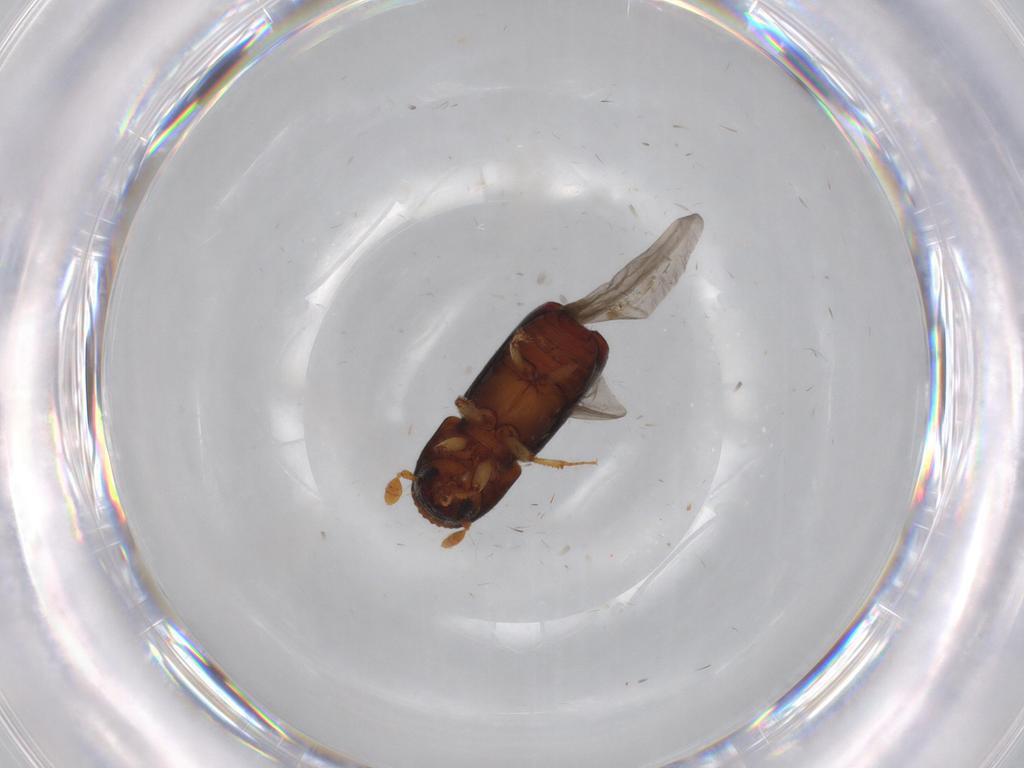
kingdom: Animalia
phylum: Arthropoda
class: Insecta
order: Coleoptera
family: Curculionidae
